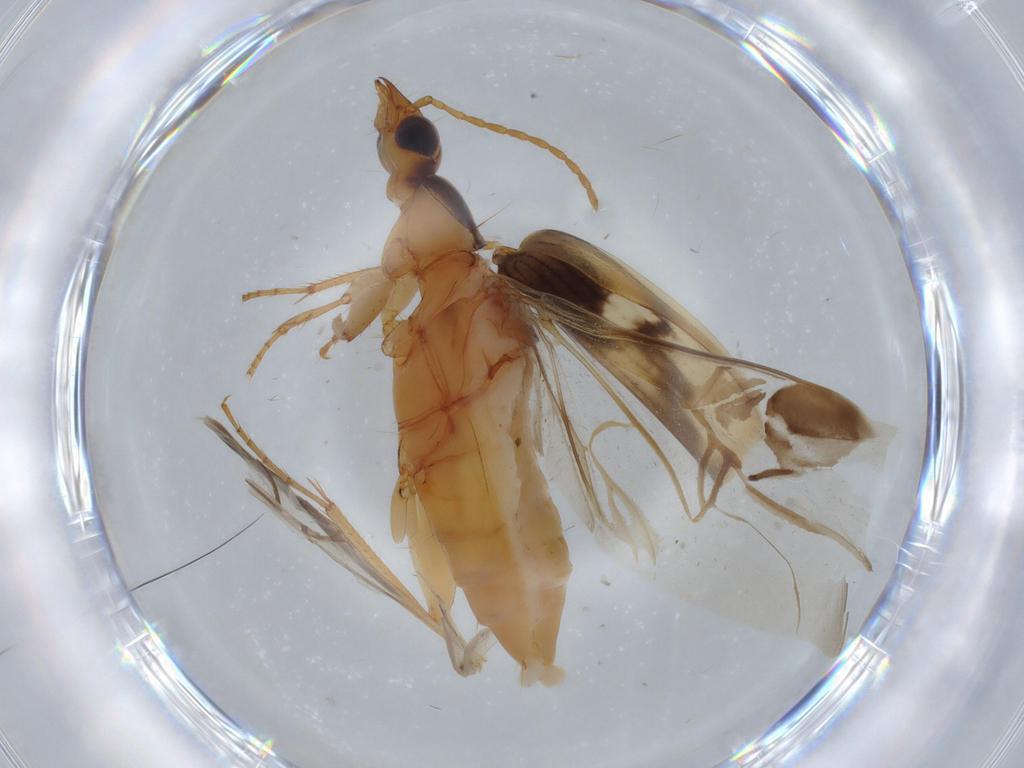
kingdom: Animalia
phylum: Arthropoda
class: Insecta
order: Coleoptera
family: Carabidae
